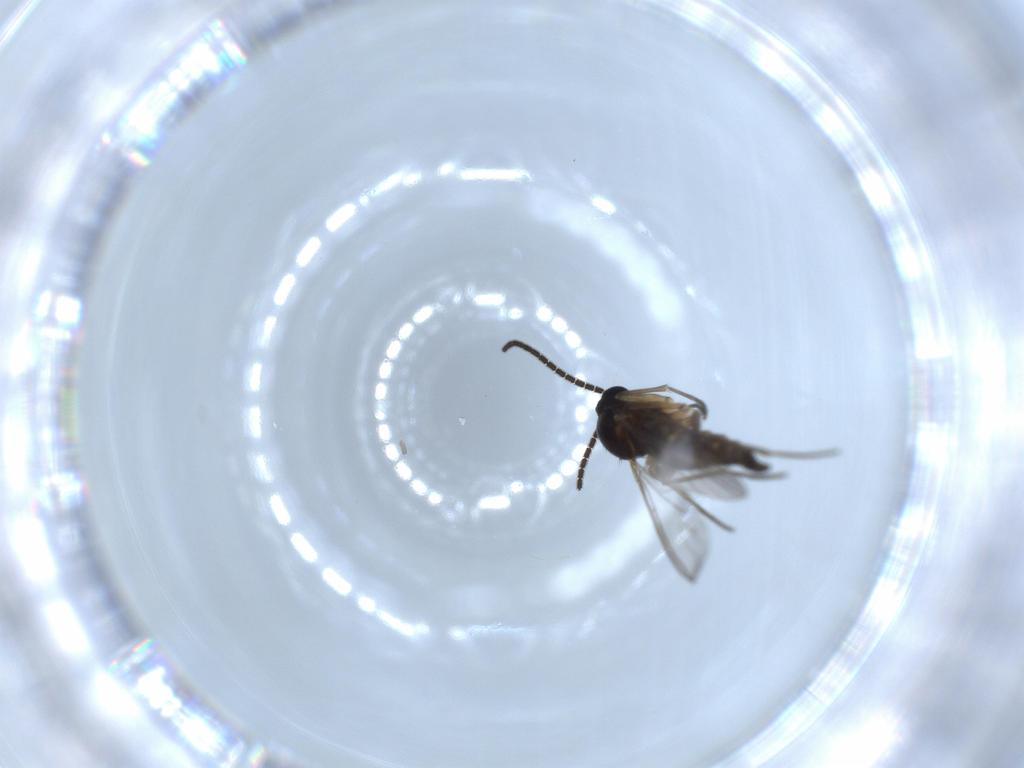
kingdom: Animalia
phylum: Arthropoda
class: Insecta
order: Diptera
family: Sciaridae
